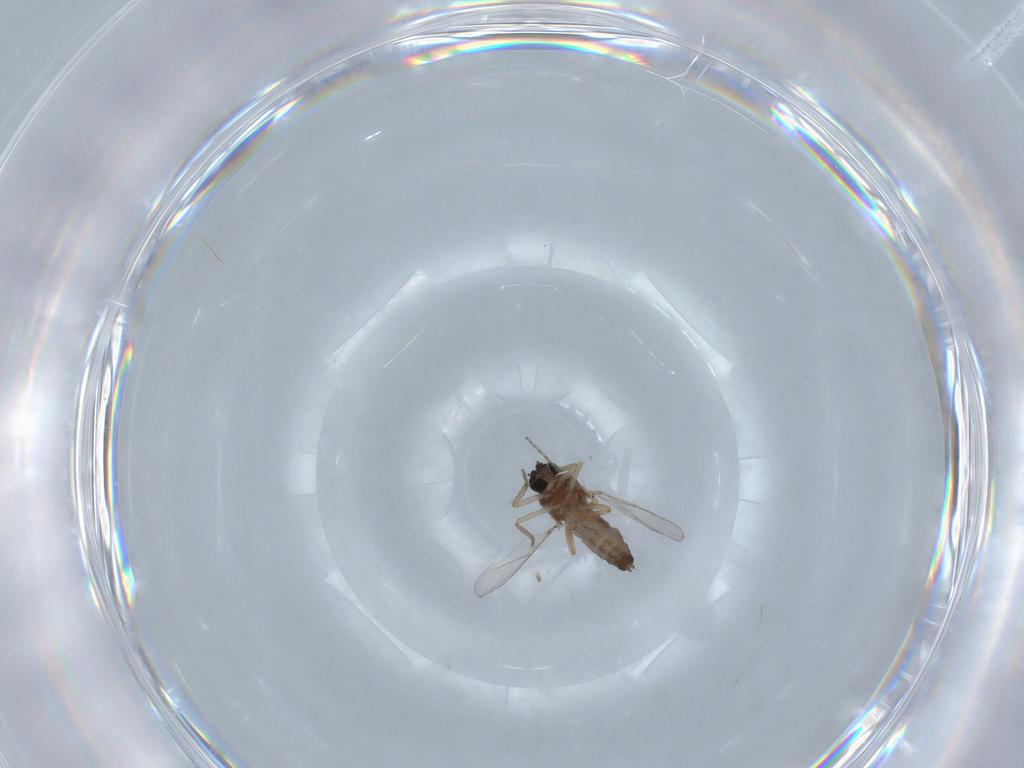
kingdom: Animalia
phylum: Arthropoda
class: Insecta
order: Diptera
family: Ceratopogonidae
